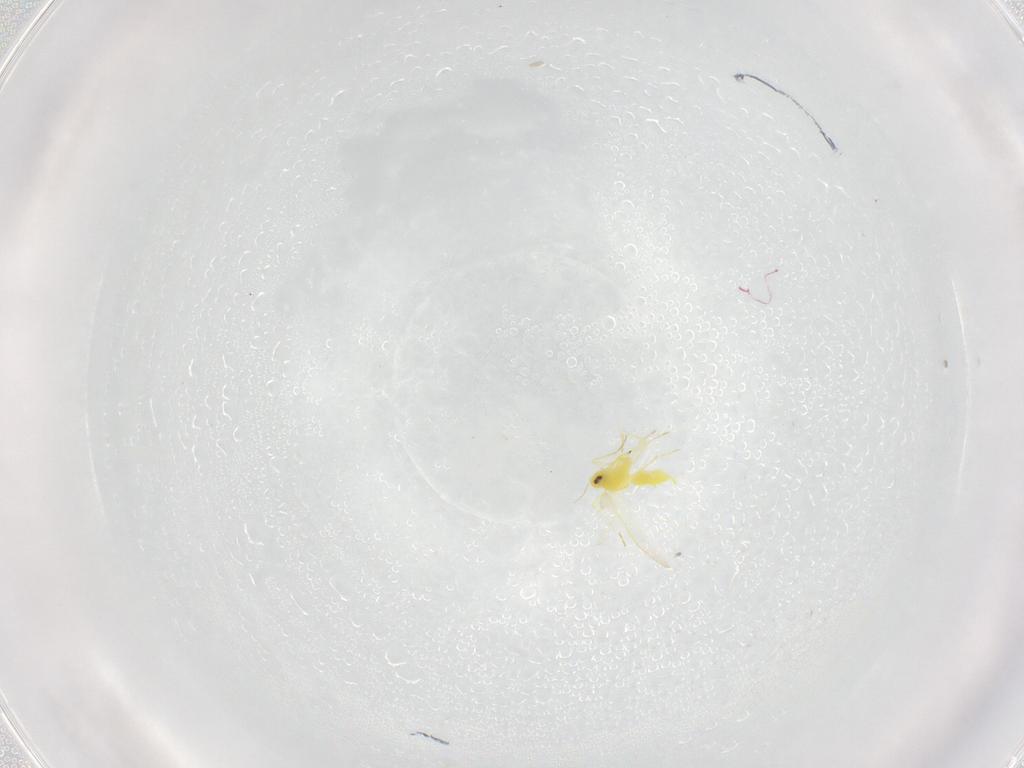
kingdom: Animalia
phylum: Arthropoda
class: Insecta
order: Hemiptera
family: Aleyrodidae
